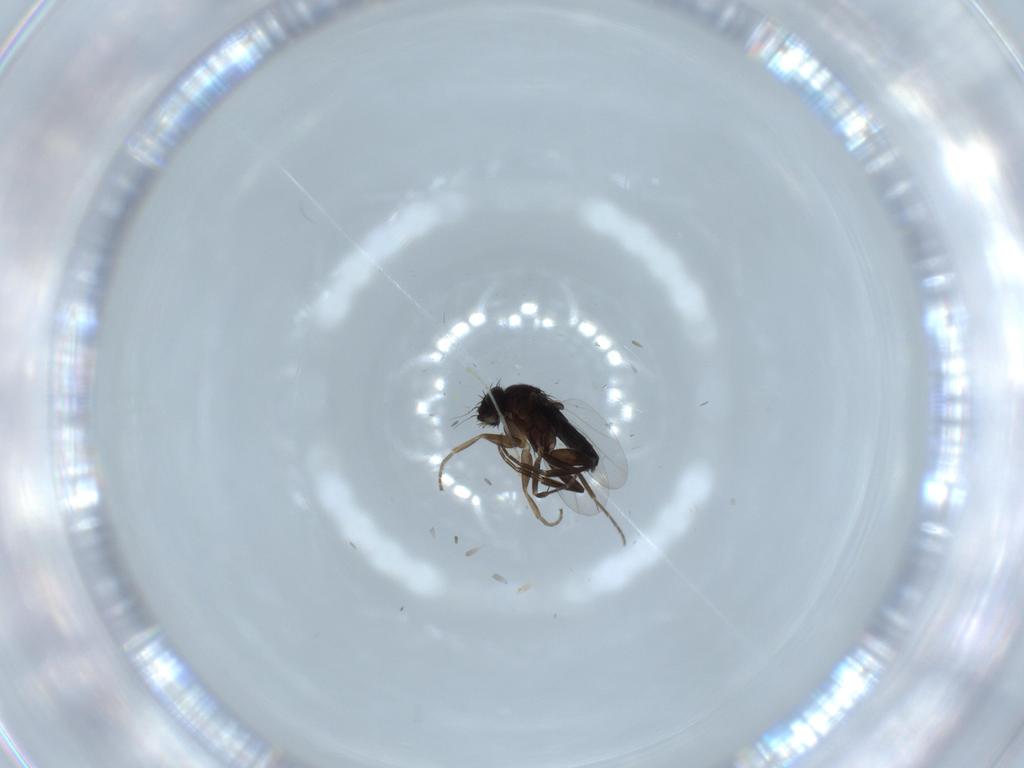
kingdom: Animalia
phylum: Arthropoda
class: Insecta
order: Diptera
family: Phoridae
